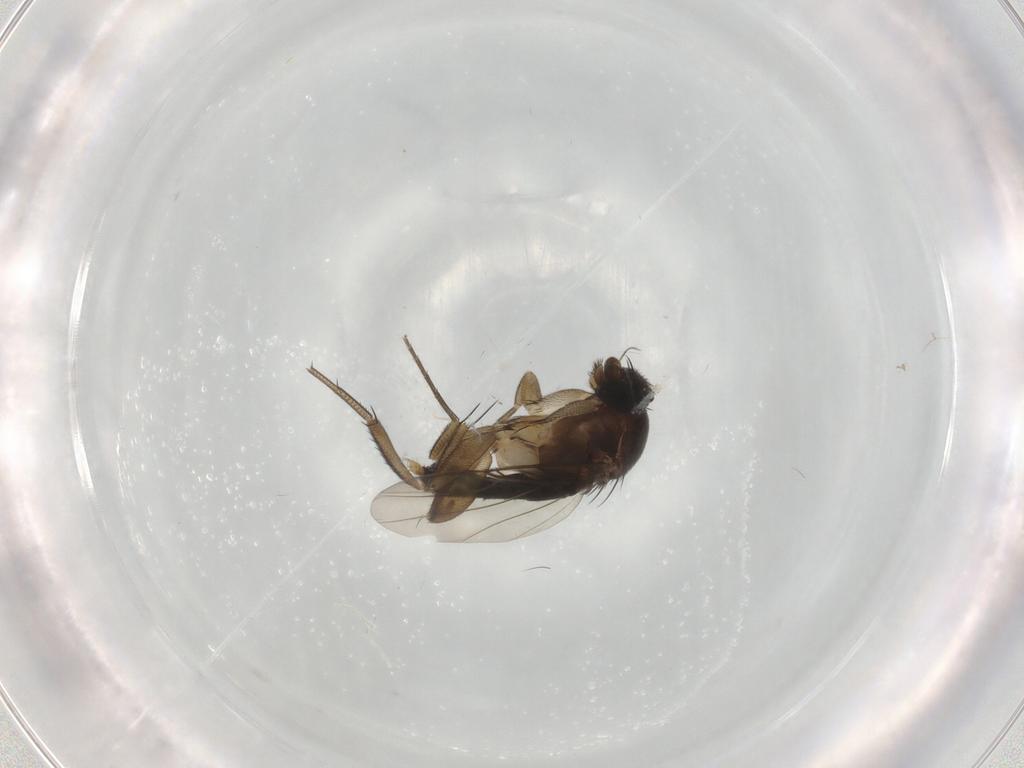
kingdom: Animalia
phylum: Arthropoda
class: Insecta
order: Diptera
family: Phoridae
